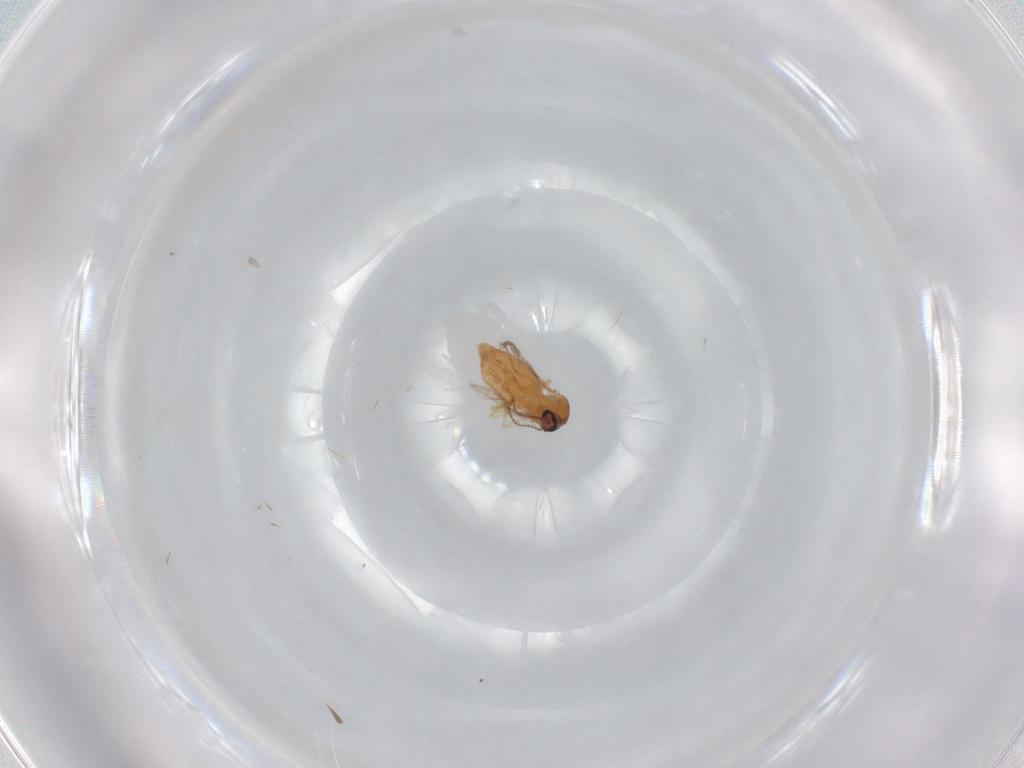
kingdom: Animalia
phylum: Arthropoda
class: Insecta
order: Diptera
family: Ceratopogonidae
